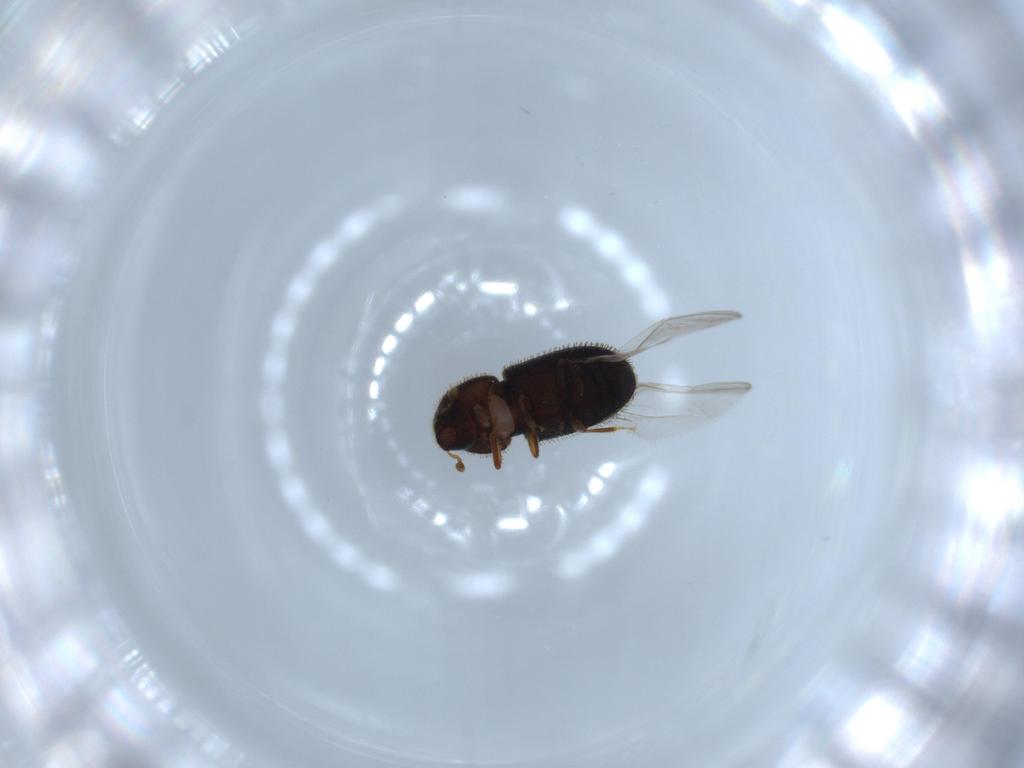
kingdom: Animalia
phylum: Arthropoda
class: Insecta
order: Coleoptera
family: Curculionidae
